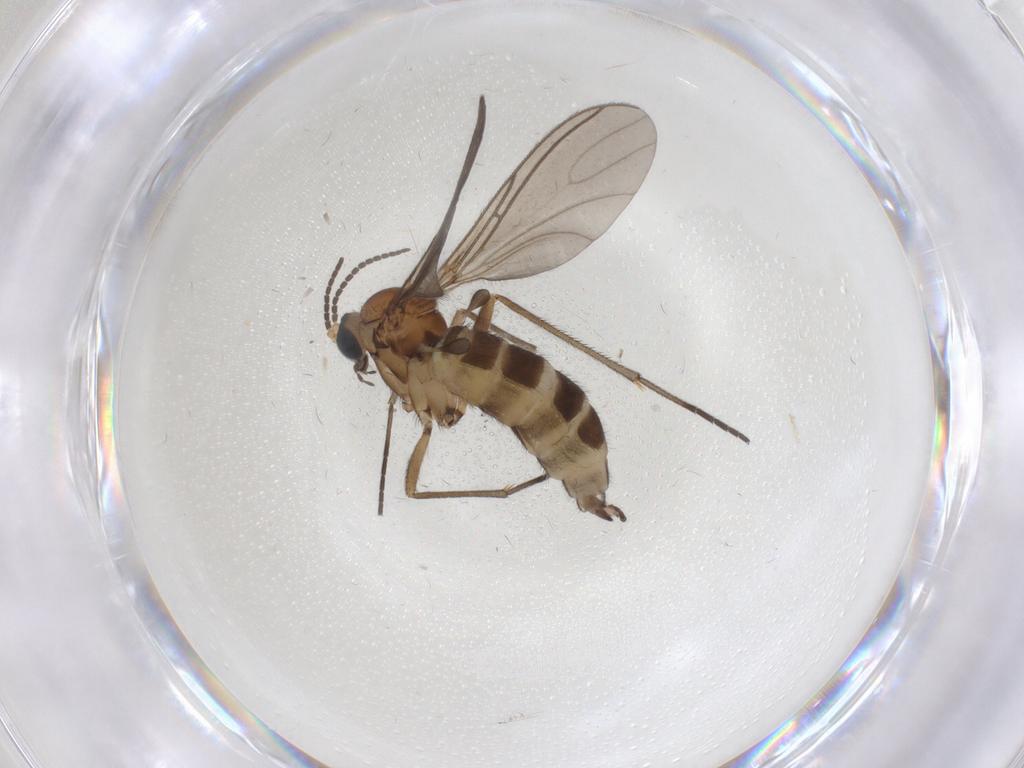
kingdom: Animalia
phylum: Arthropoda
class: Insecta
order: Diptera
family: Sciaridae
